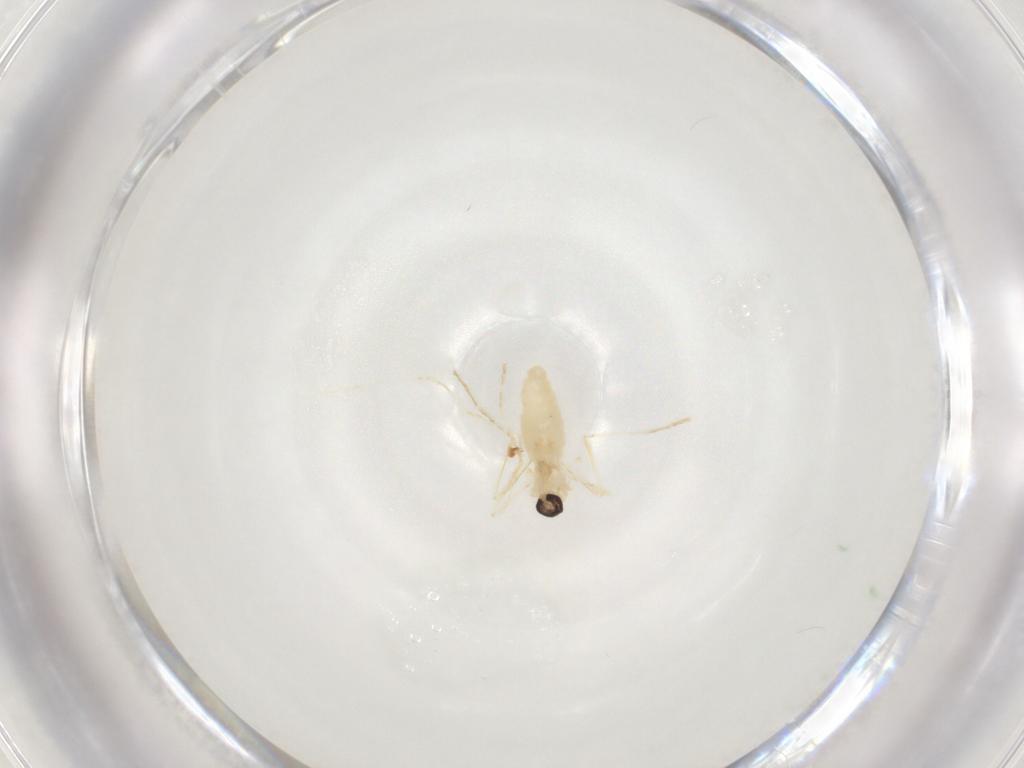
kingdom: Animalia
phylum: Arthropoda
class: Insecta
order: Diptera
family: Cecidomyiidae
